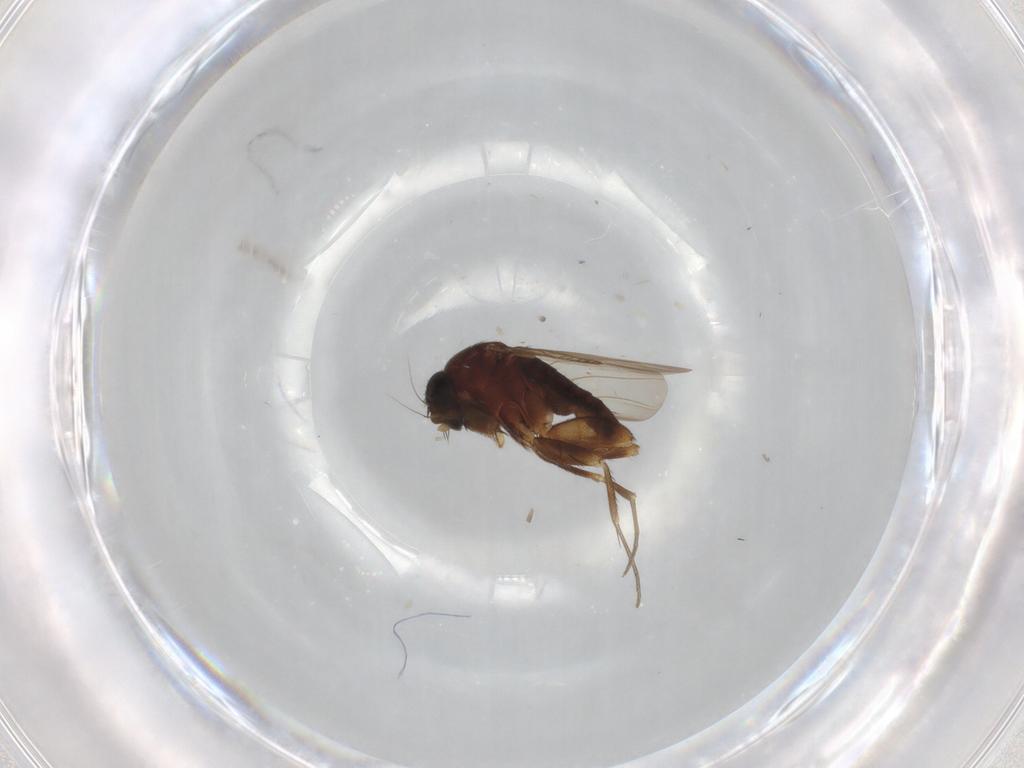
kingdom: Animalia
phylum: Arthropoda
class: Insecta
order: Diptera
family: Phoridae
